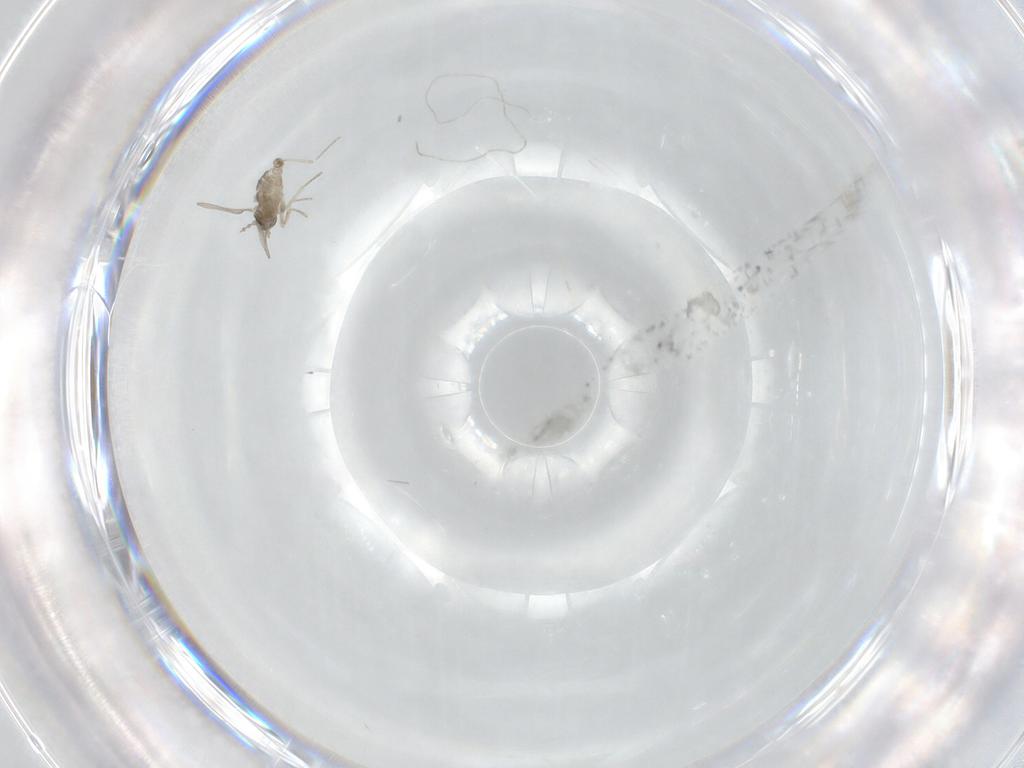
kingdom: Animalia
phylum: Arthropoda
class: Insecta
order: Diptera
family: Cecidomyiidae
